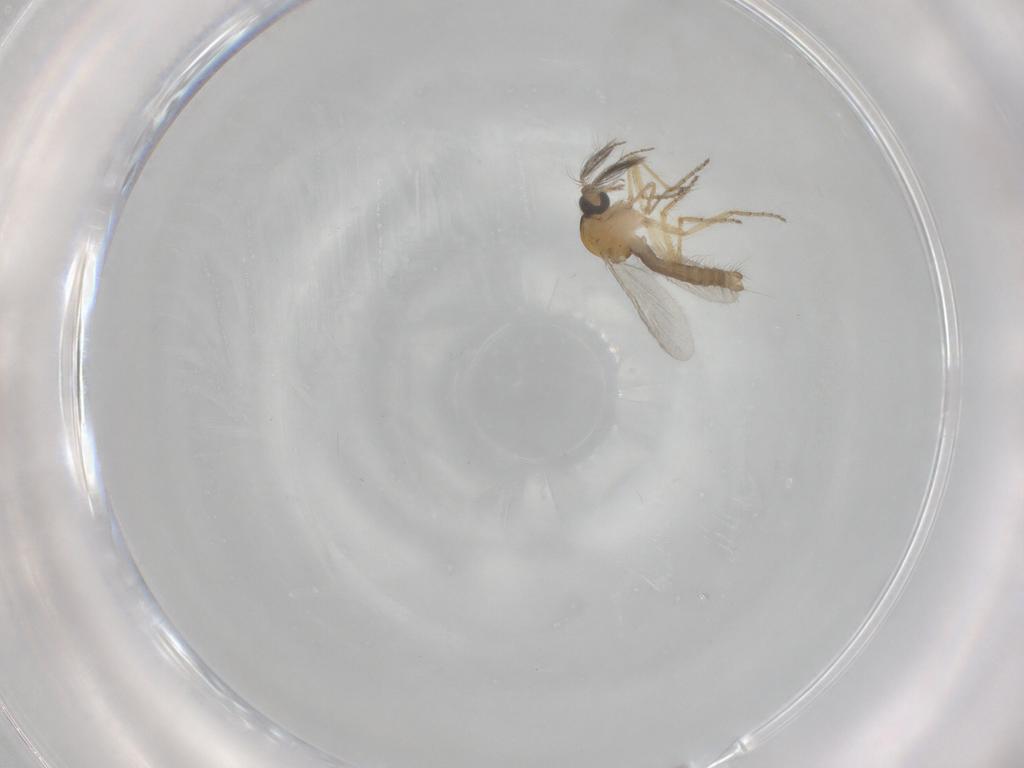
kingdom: Animalia
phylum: Arthropoda
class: Insecta
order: Diptera
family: Ceratopogonidae
